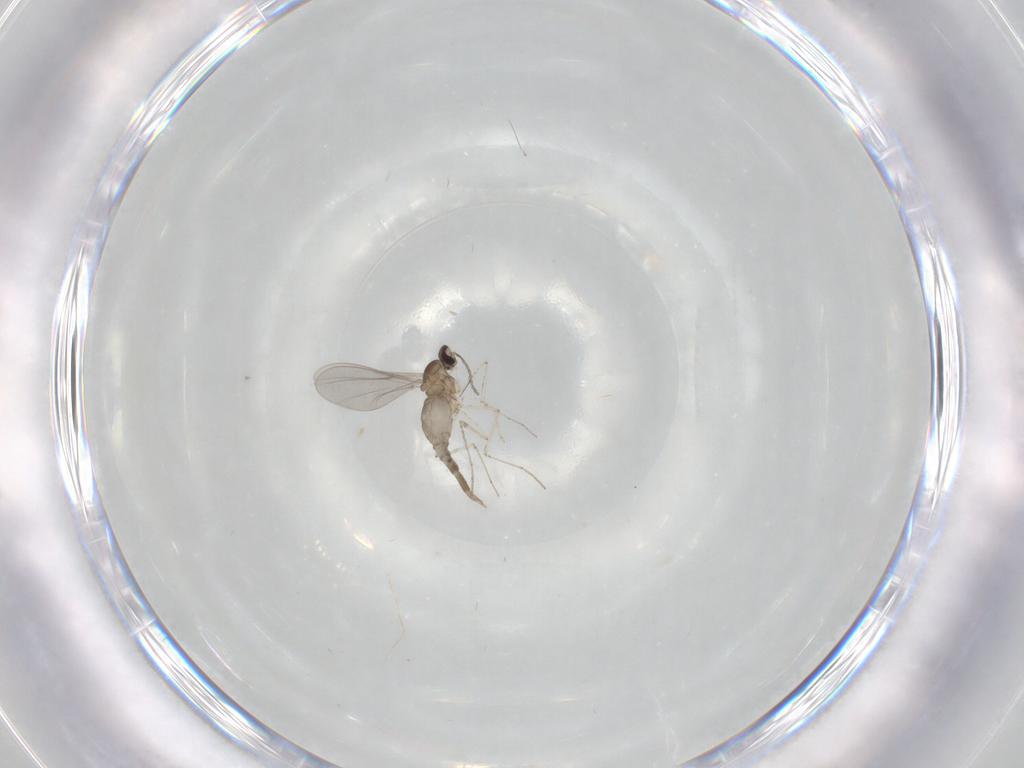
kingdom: Animalia
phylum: Arthropoda
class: Insecta
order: Diptera
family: Cecidomyiidae
